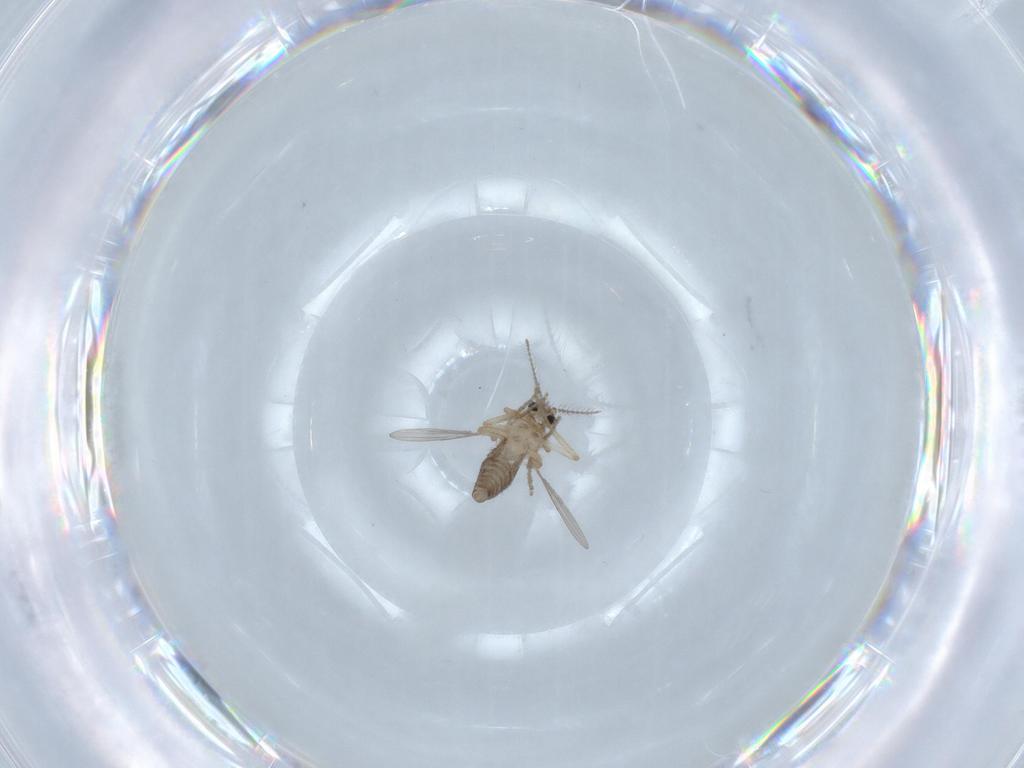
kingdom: Animalia
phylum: Arthropoda
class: Insecta
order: Diptera
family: Ceratopogonidae
